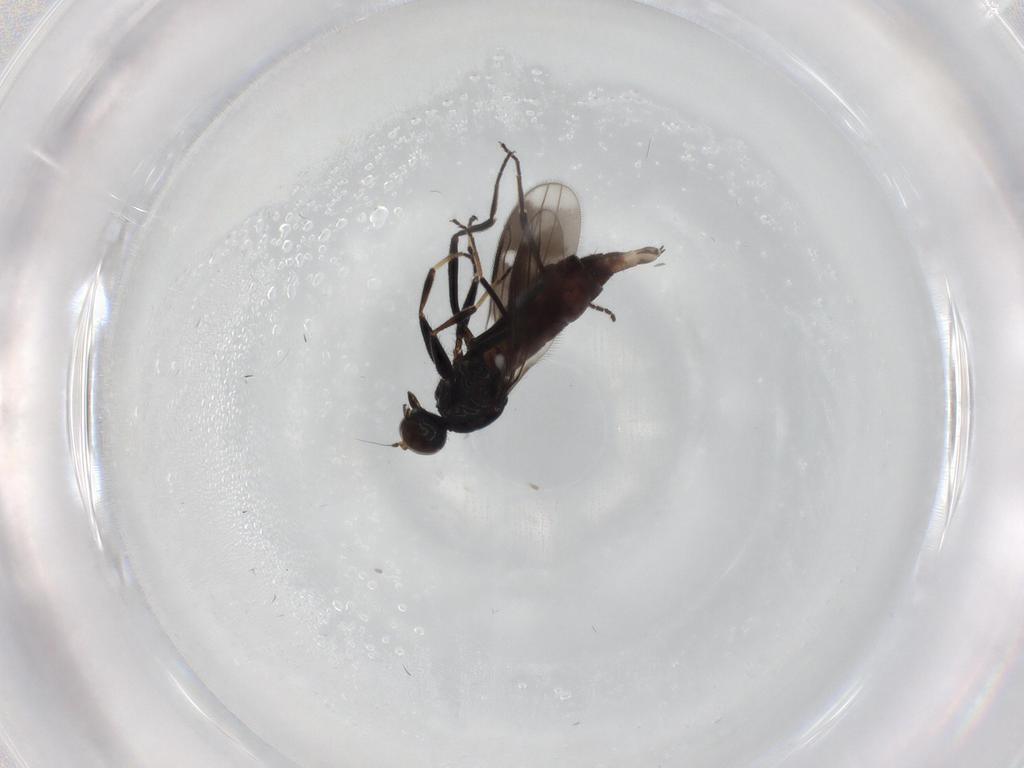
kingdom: Animalia
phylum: Arthropoda
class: Insecta
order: Diptera
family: Hybotidae
